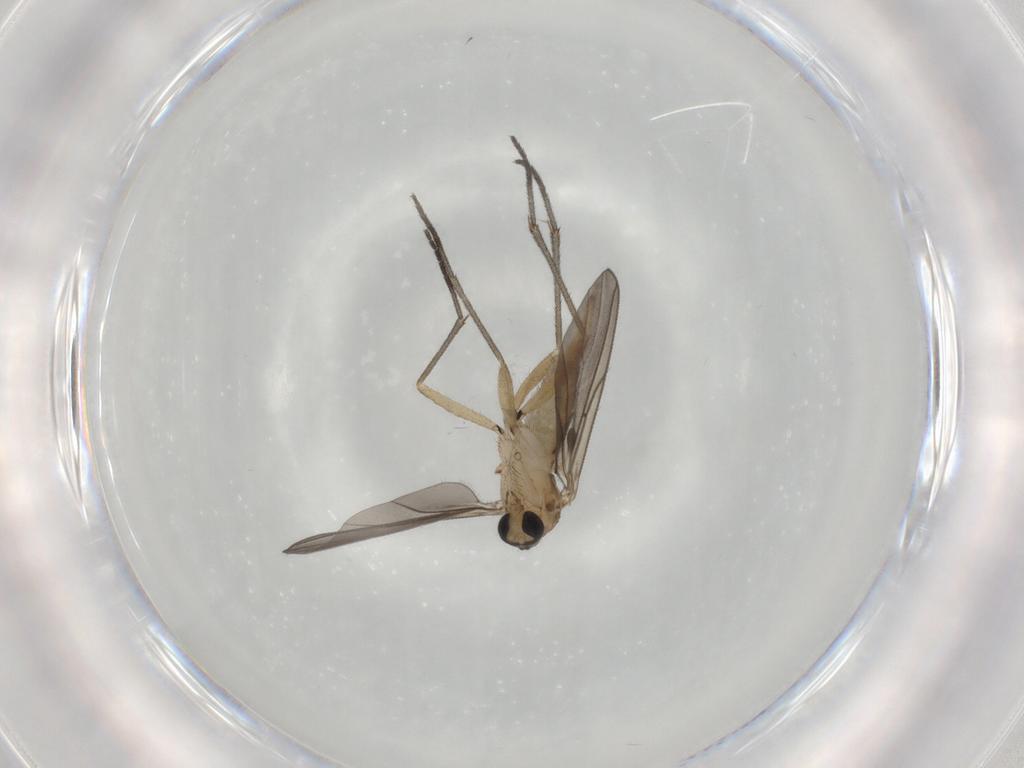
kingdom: Animalia
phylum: Arthropoda
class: Insecta
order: Diptera
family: Sciaridae
